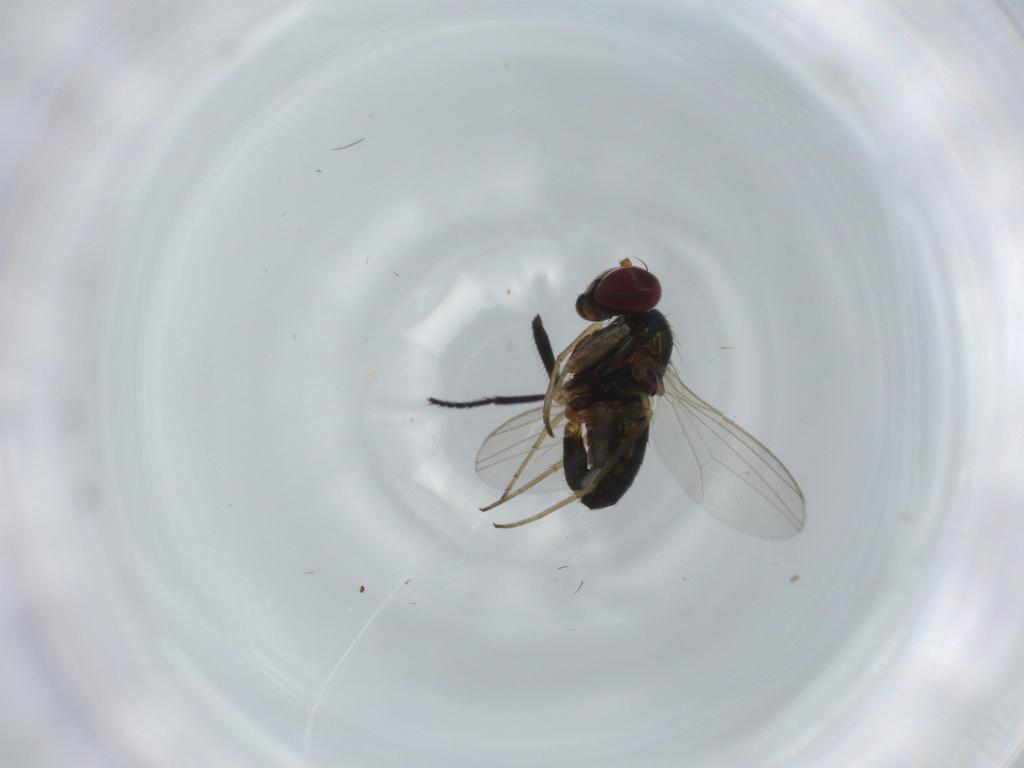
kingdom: Animalia
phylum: Arthropoda
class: Insecta
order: Diptera
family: Dolichopodidae
